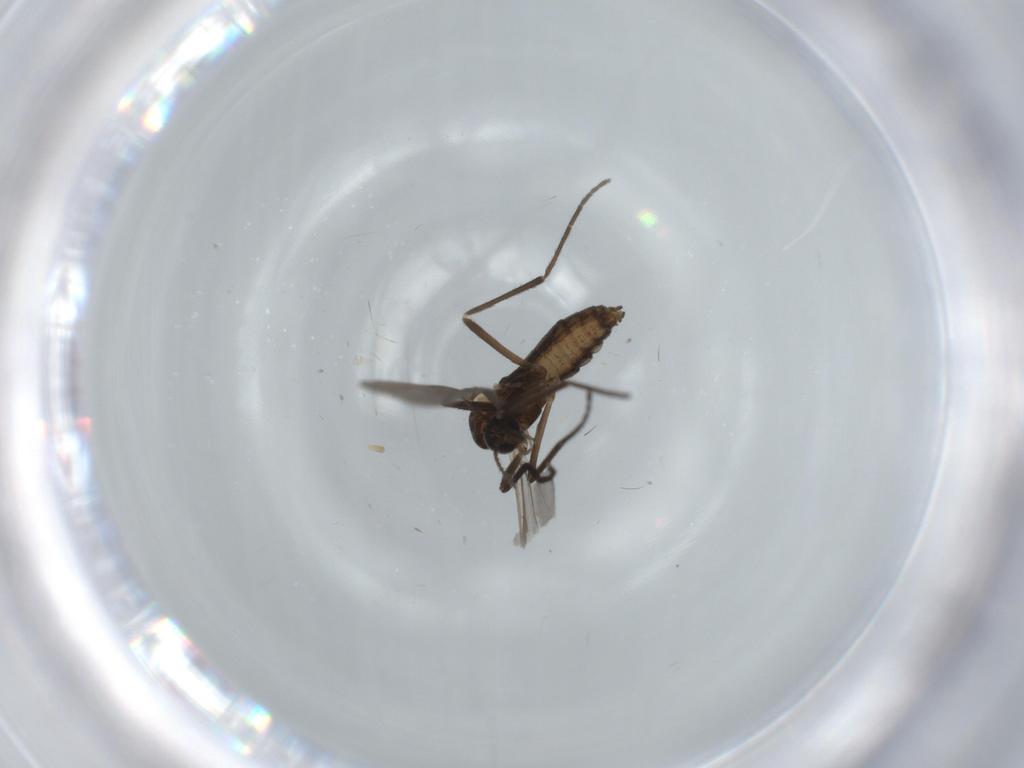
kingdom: Animalia
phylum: Arthropoda
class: Insecta
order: Diptera
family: Cecidomyiidae
